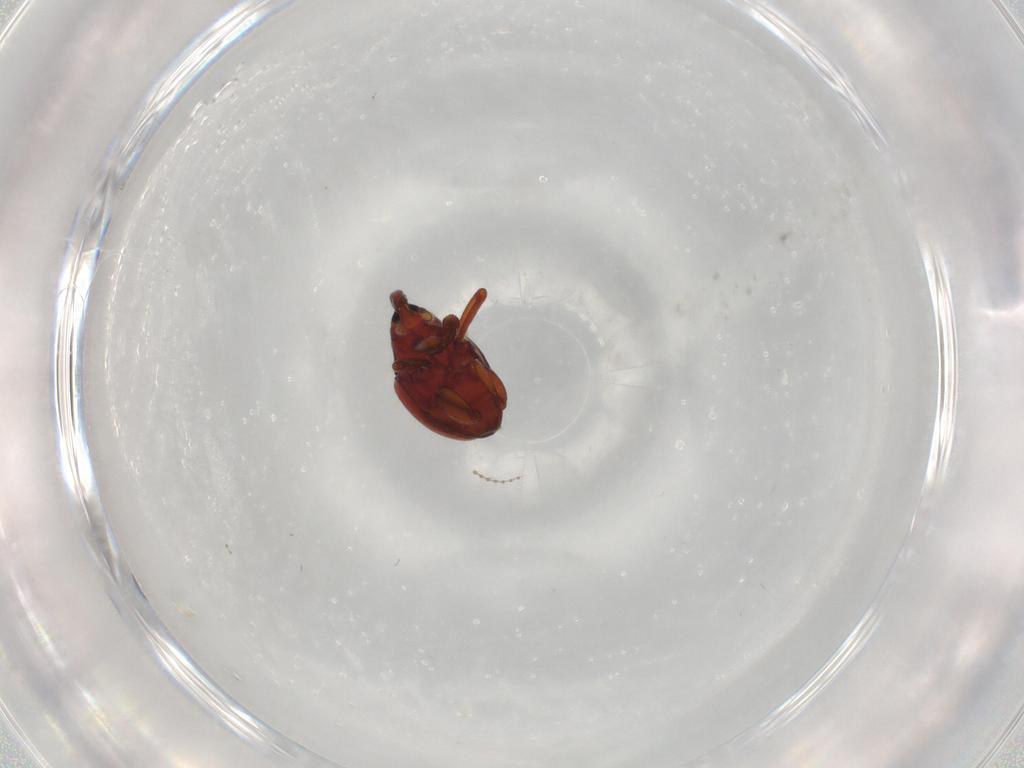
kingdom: Animalia
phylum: Arthropoda
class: Insecta
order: Coleoptera
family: Curculionidae
